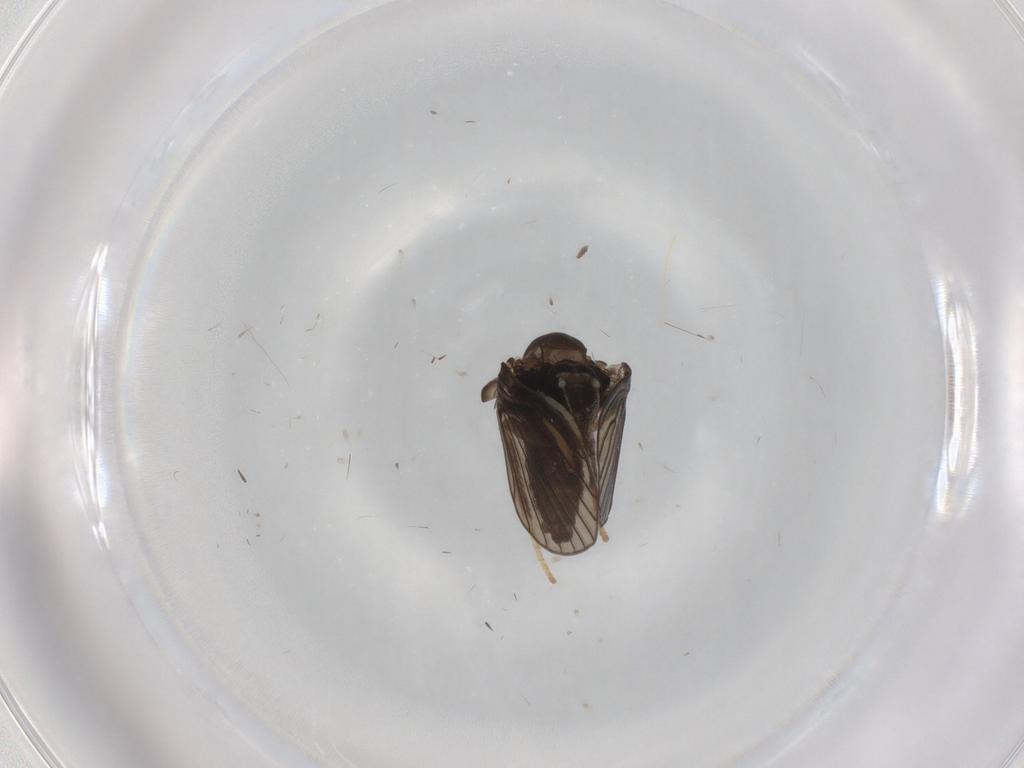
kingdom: Animalia
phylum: Arthropoda
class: Insecta
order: Diptera
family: Psychodidae
